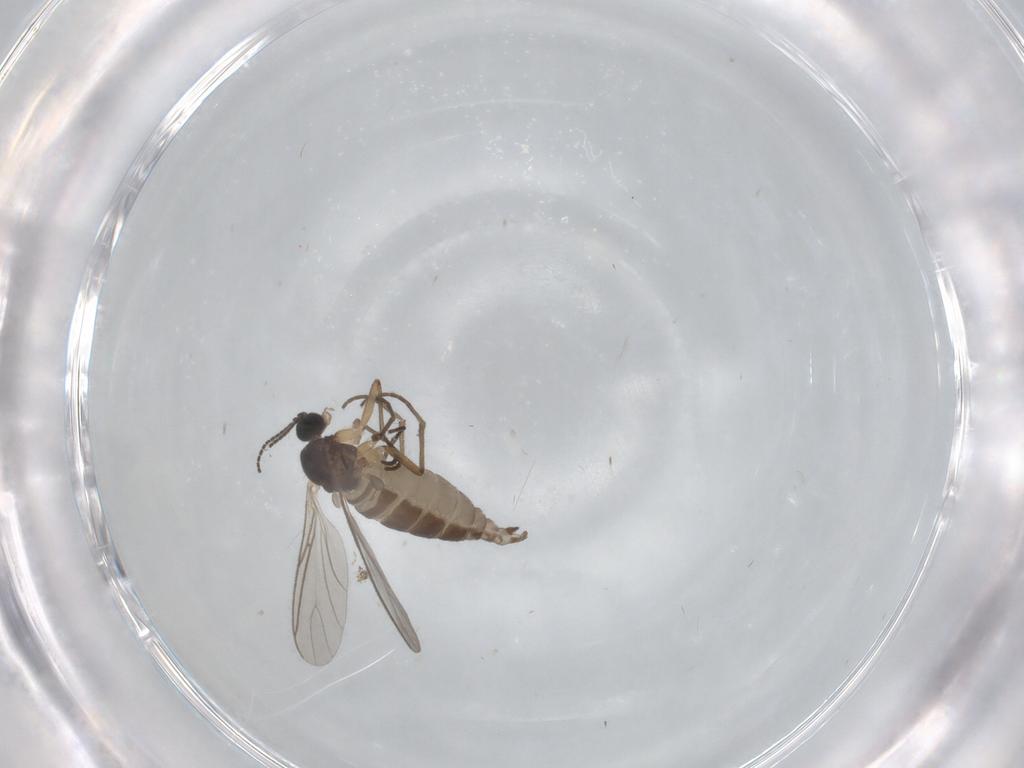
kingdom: Animalia
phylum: Arthropoda
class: Insecta
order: Diptera
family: Sciaridae
